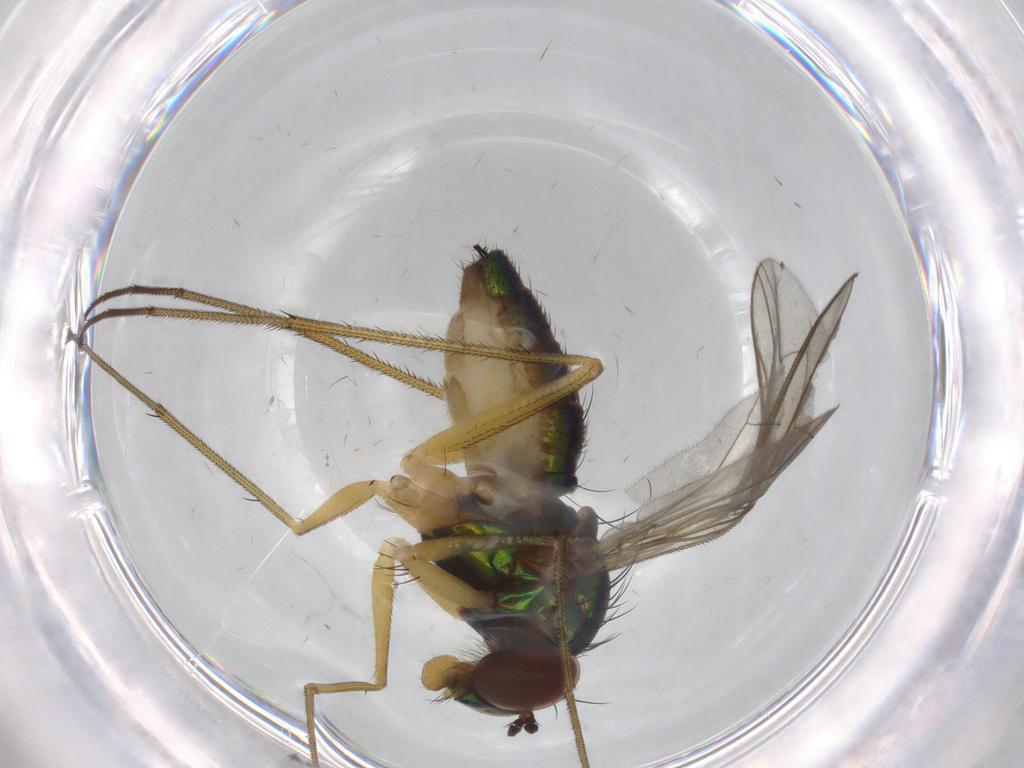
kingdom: Animalia
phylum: Arthropoda
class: Insecta
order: Diptera
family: Dolichopodidae
